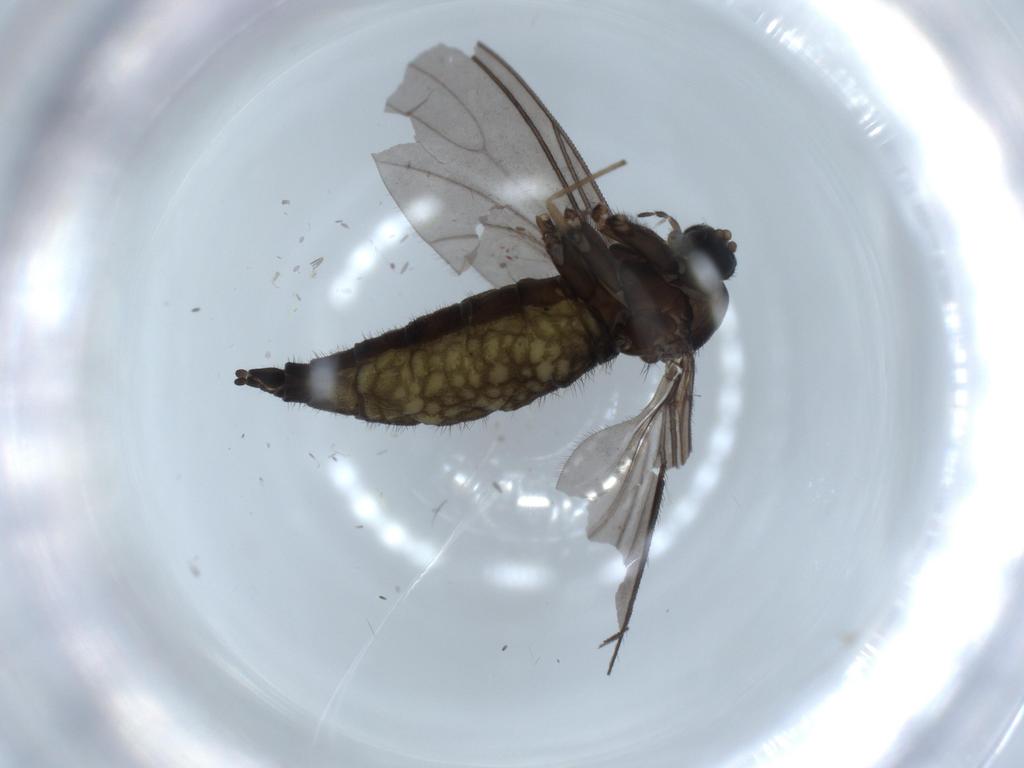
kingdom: Animalia
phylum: Arthropoda
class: Insecta
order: Diptera
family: Sciaridae
